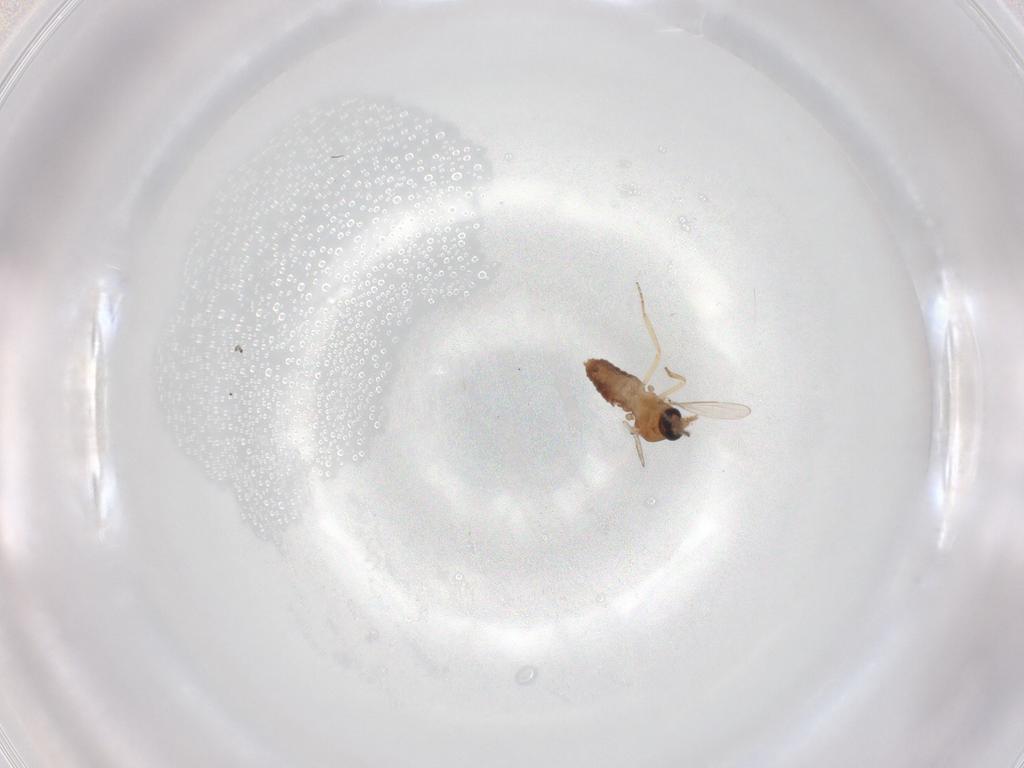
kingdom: Animalia
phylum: Arthropoda
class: Insecta
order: Diptera
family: Ceratopogonidae
